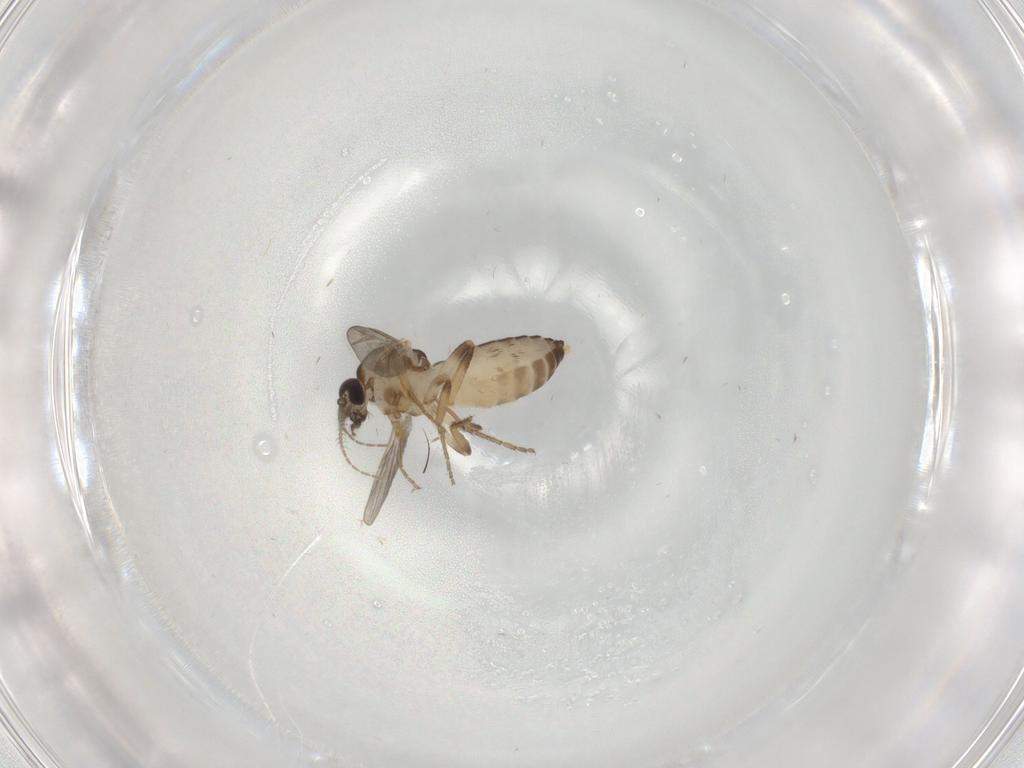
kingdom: Animalia
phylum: Arthropoda
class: Insecta
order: Diptera
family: Ceratopogonidae
